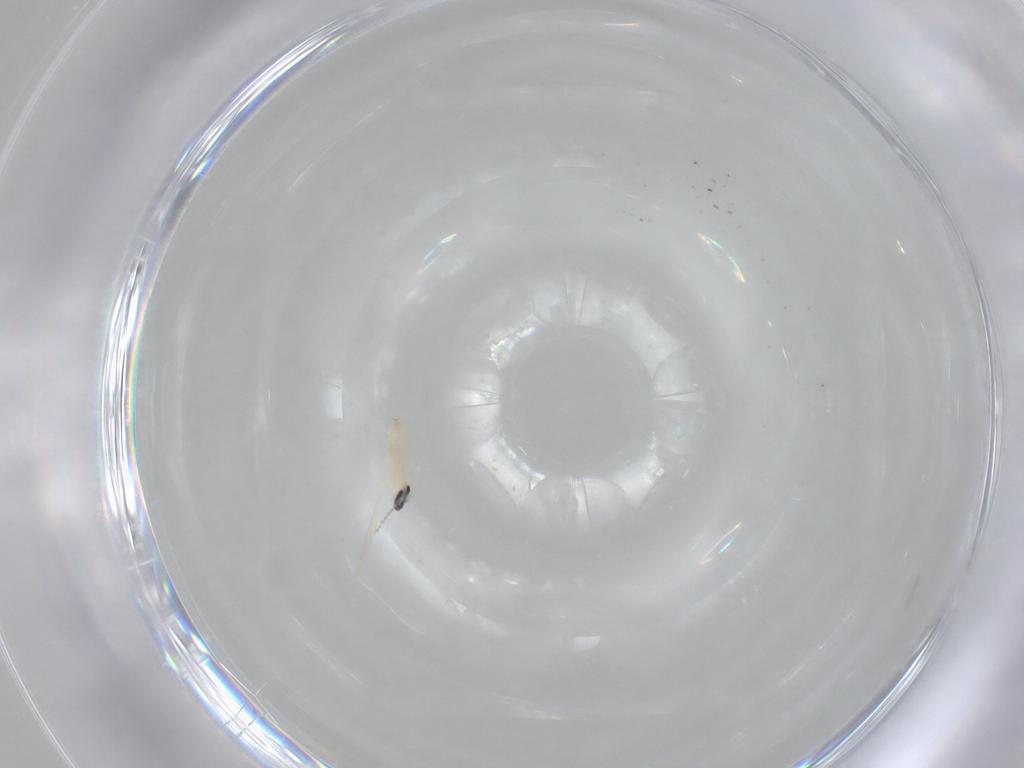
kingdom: Animalia
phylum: Arthropoda
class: Insecta
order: Diptera
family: Cecidomyiidae
